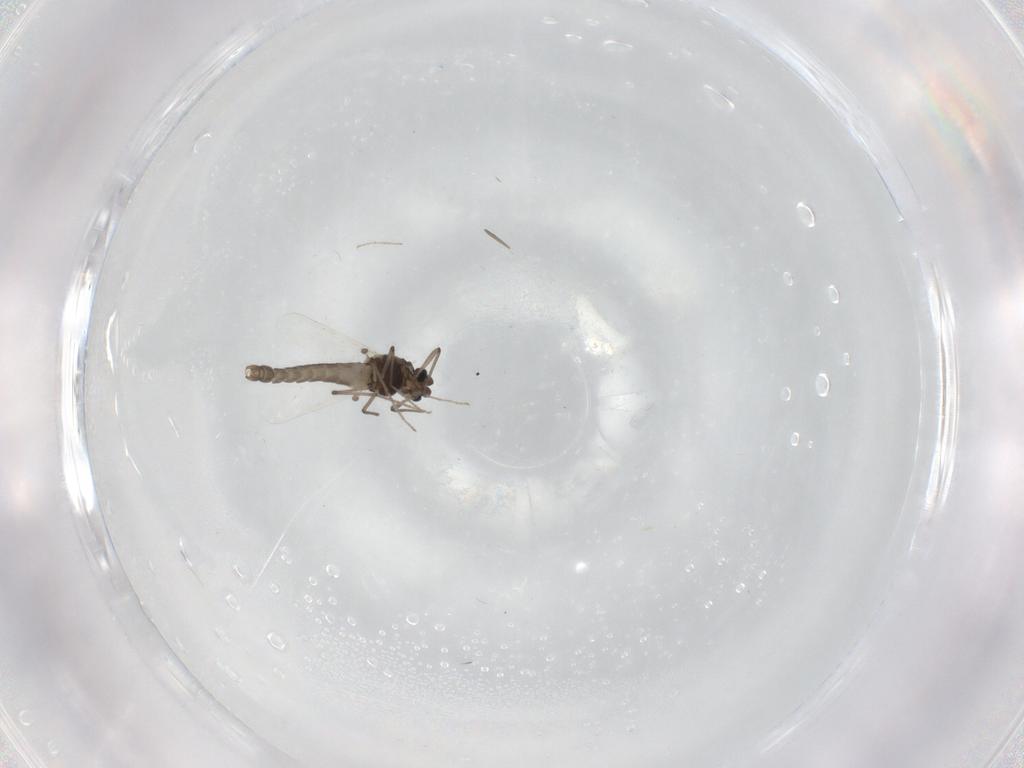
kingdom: Animalia
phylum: Arthropoda
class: Insecta
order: Diptera
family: Chironomidae
